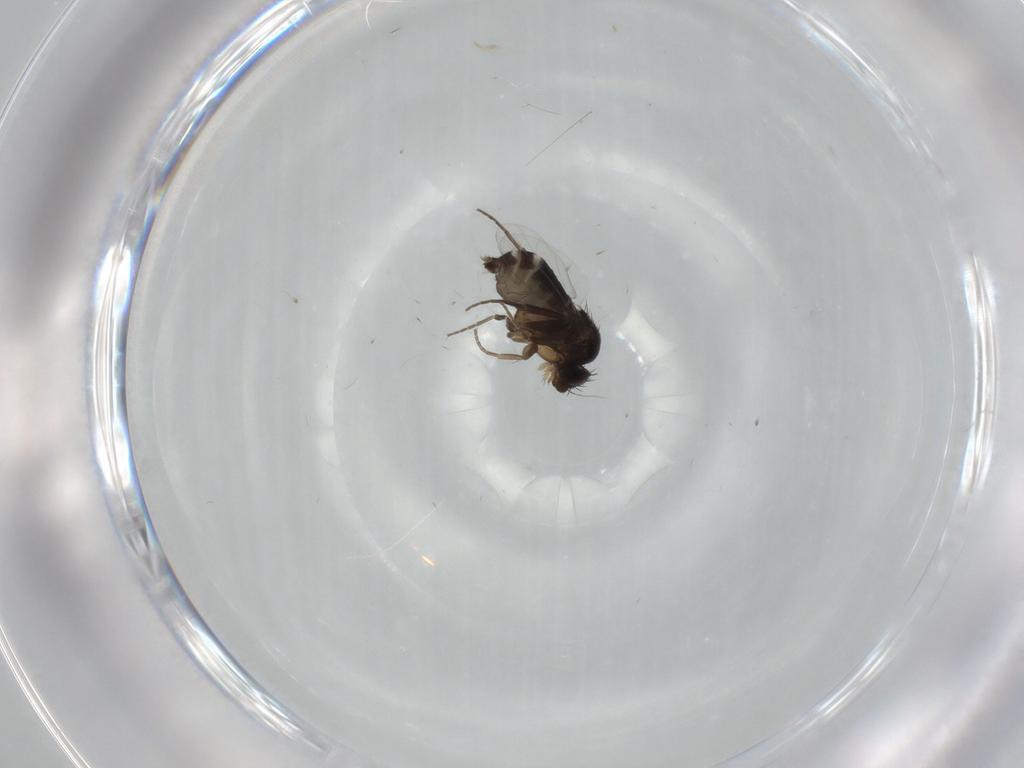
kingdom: Animalia
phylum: Arthropoda
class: Insecta
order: Diptera
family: Phoridae
